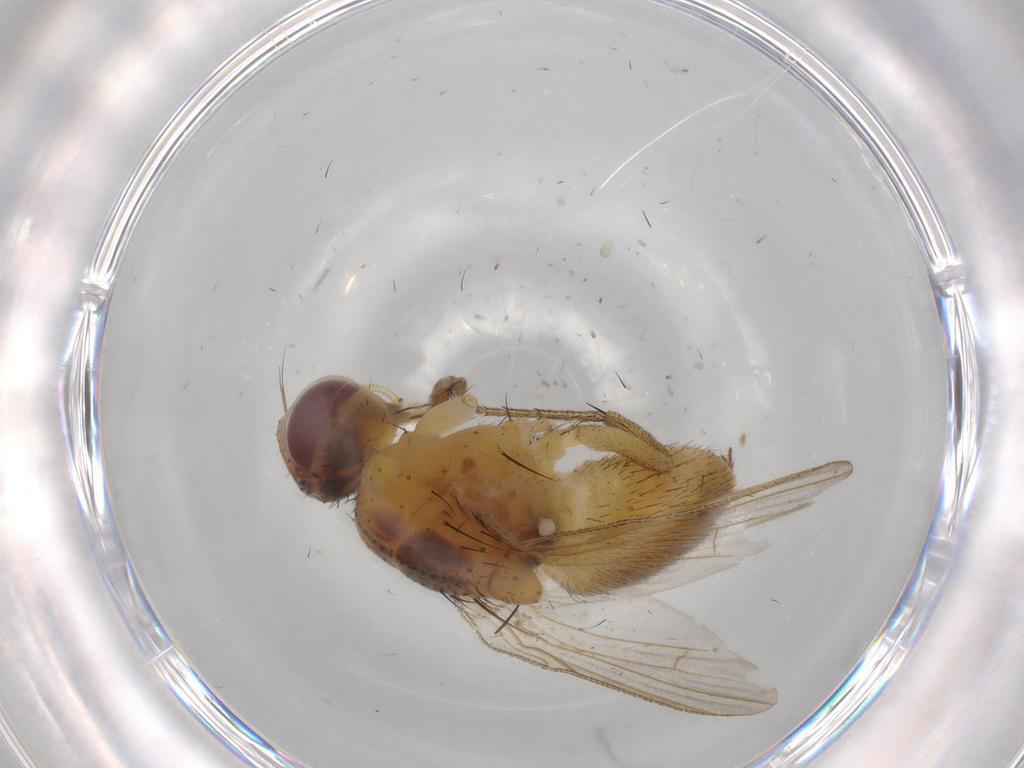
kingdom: Animalia
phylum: Arthropoda
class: Insecta
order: Diptera
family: Muscidae
